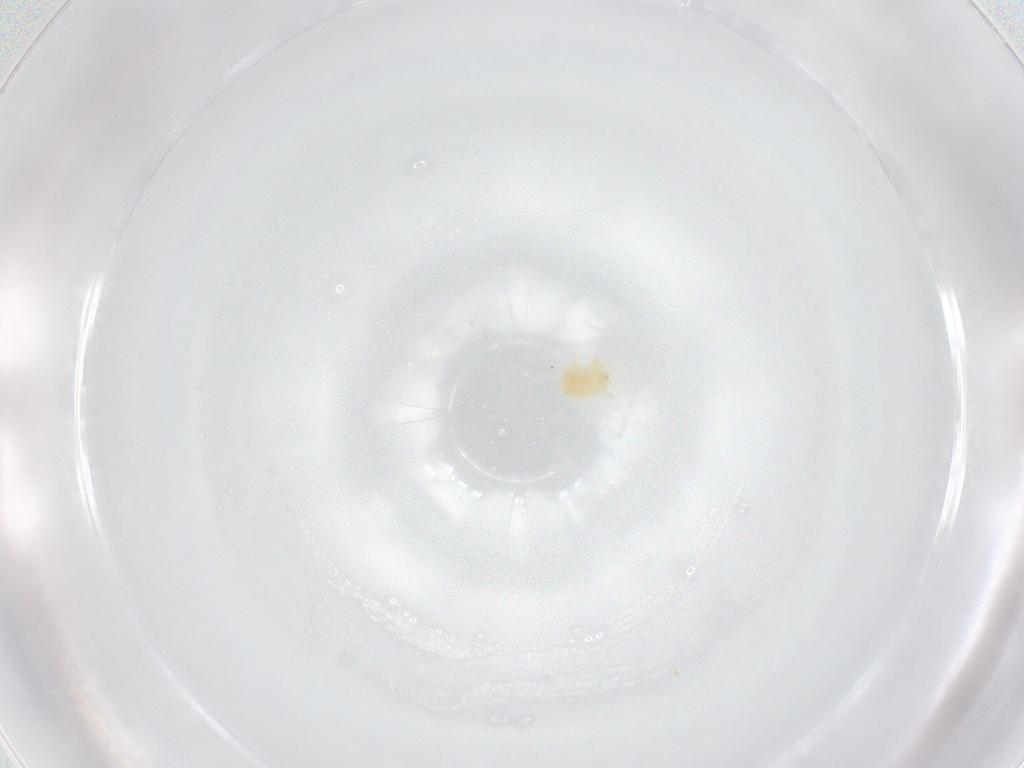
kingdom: Animalia
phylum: Arthropoda
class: Arachnida
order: Trombidiformes
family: Tetranychidae
